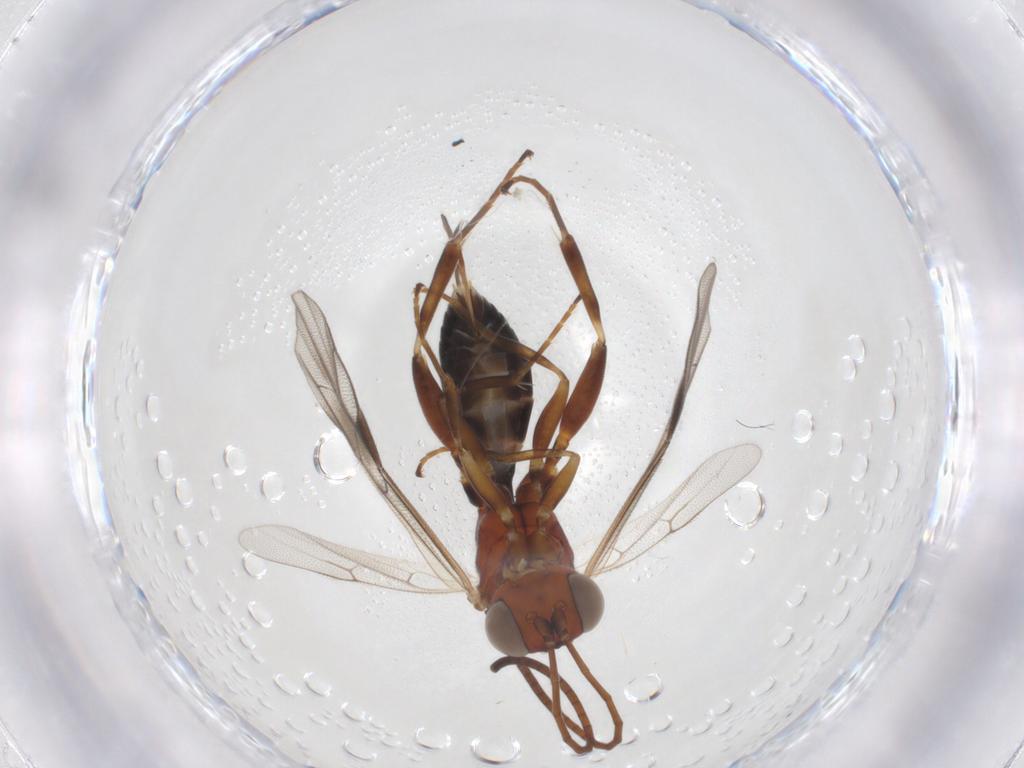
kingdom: Animalia
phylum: Arthropoda
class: Insecta
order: Hymenoptera
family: Ichneumonidae
